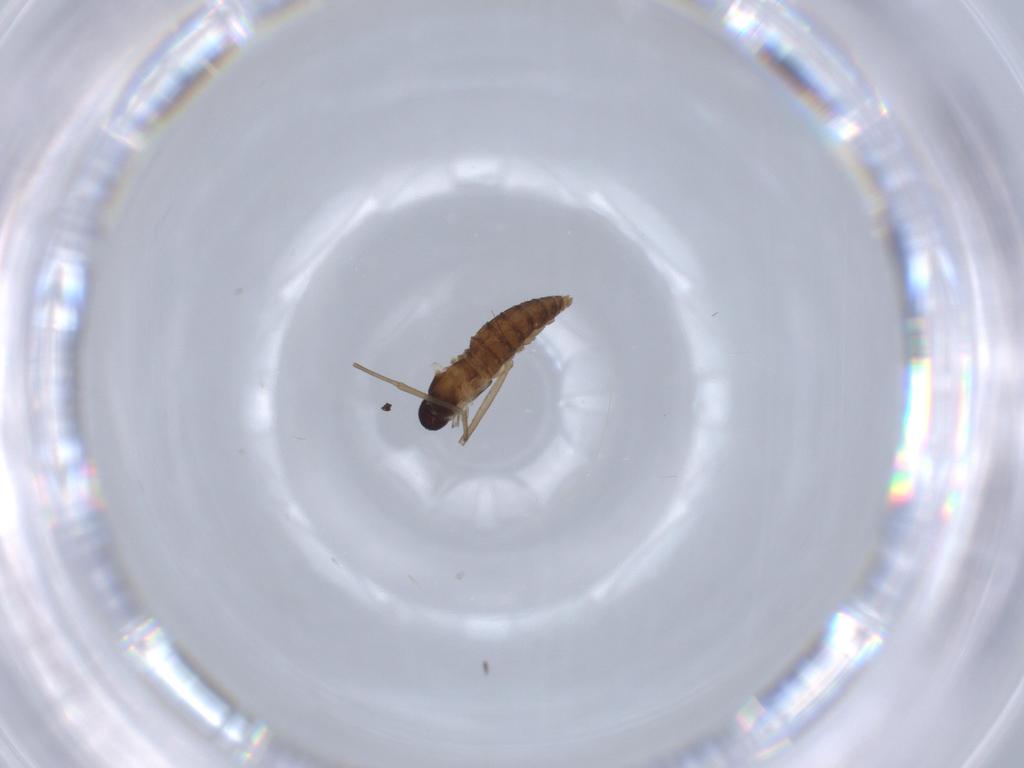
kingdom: Animalia
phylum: Arthropoda
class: Insecta
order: Diptera
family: Cecidomyiidae
